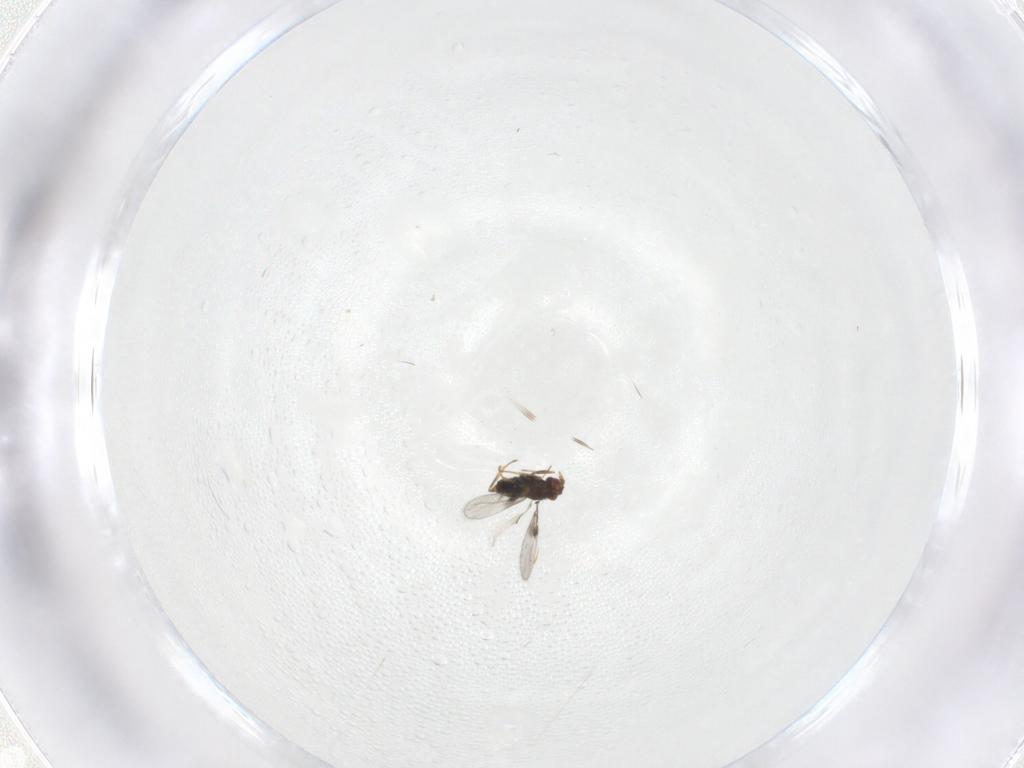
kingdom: Animalia
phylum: Arthropoda
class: Insecta
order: Hymenoptera
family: Trichogrammatidae
